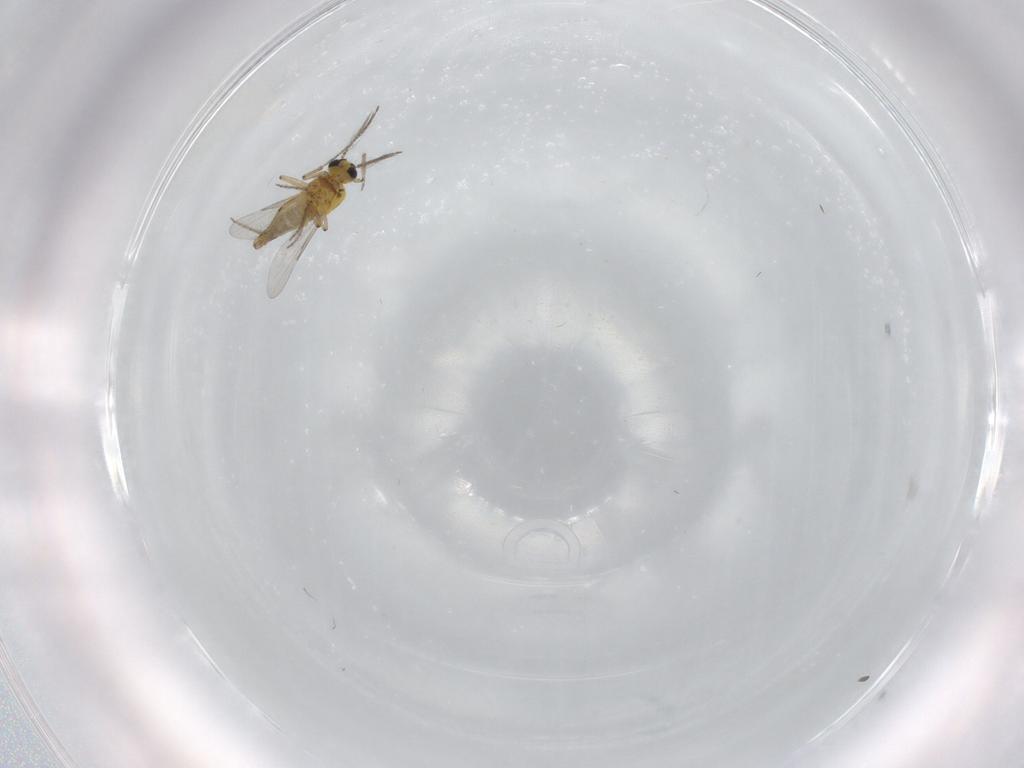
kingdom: Animalia
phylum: Arthropoda
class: Insecta
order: Diptera
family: Ceratopogonidae
